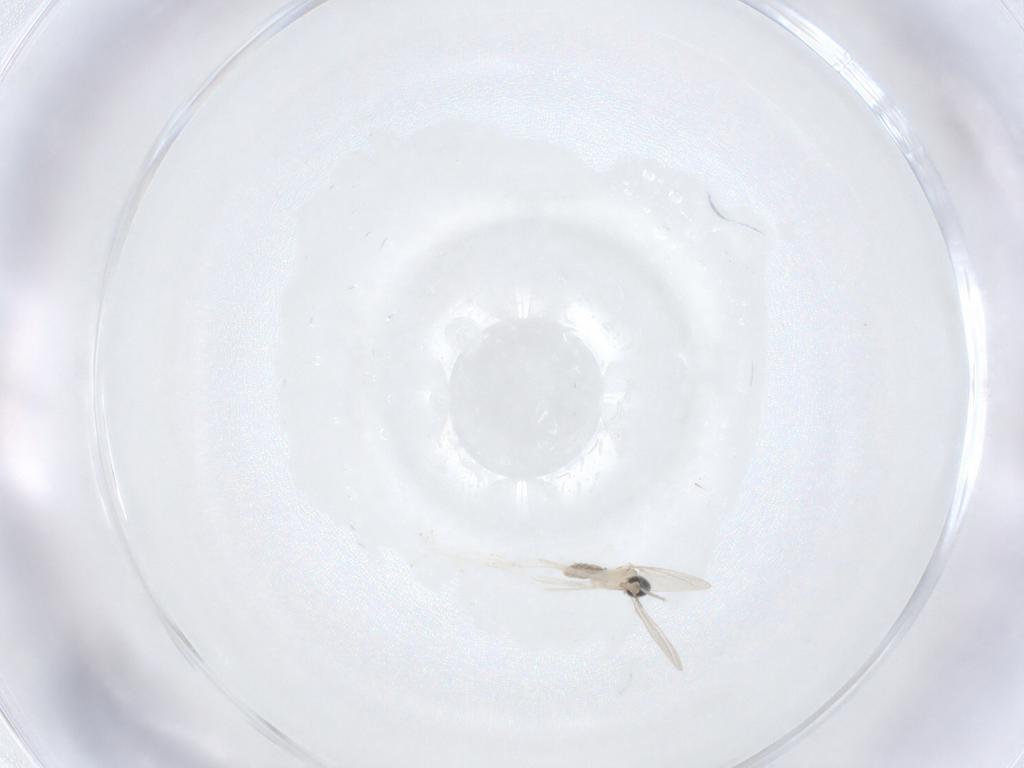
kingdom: Animalia
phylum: Arthropoda
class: Insecta
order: Diptera
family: Cecidomyiidae
